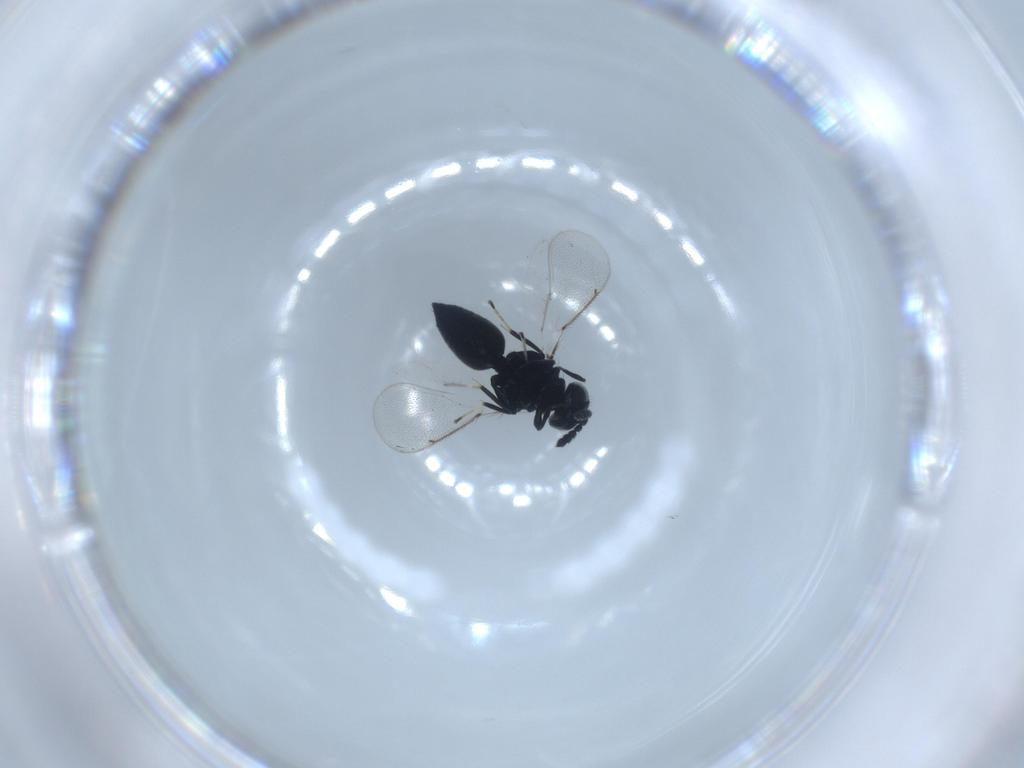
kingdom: Animalia
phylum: Arthropoda
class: Insecta
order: Hymenoptera
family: Eulophidae
